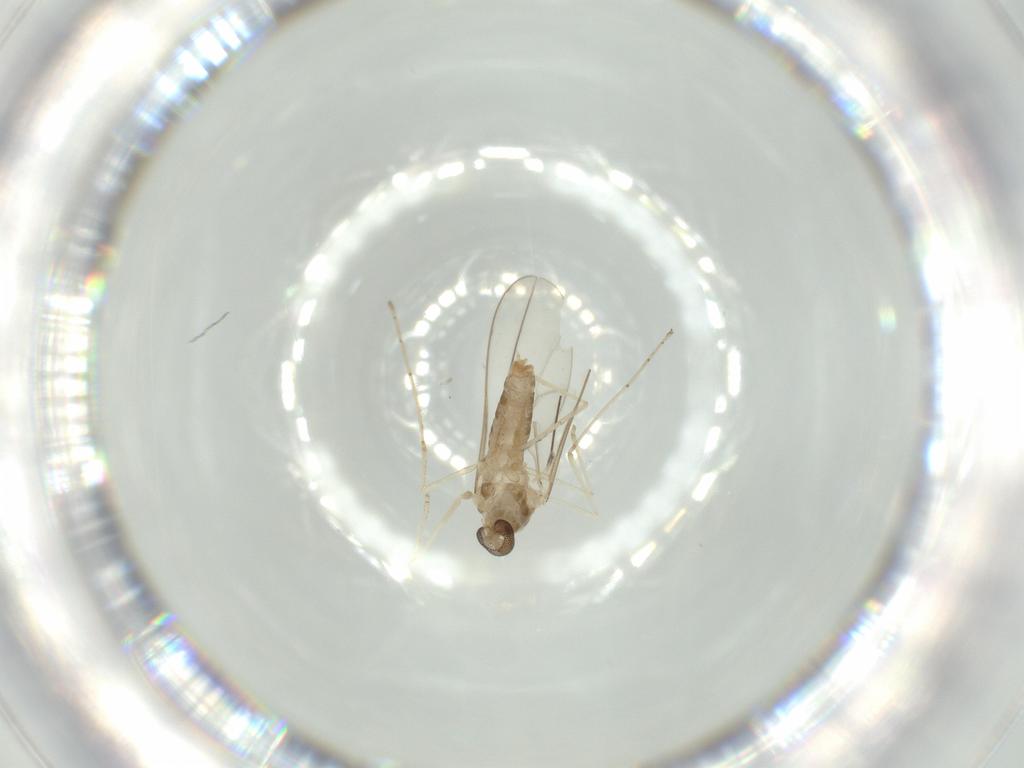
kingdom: Animalia
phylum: Arthropoda
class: Insecta
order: Diptera
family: Cecidomyiidae
